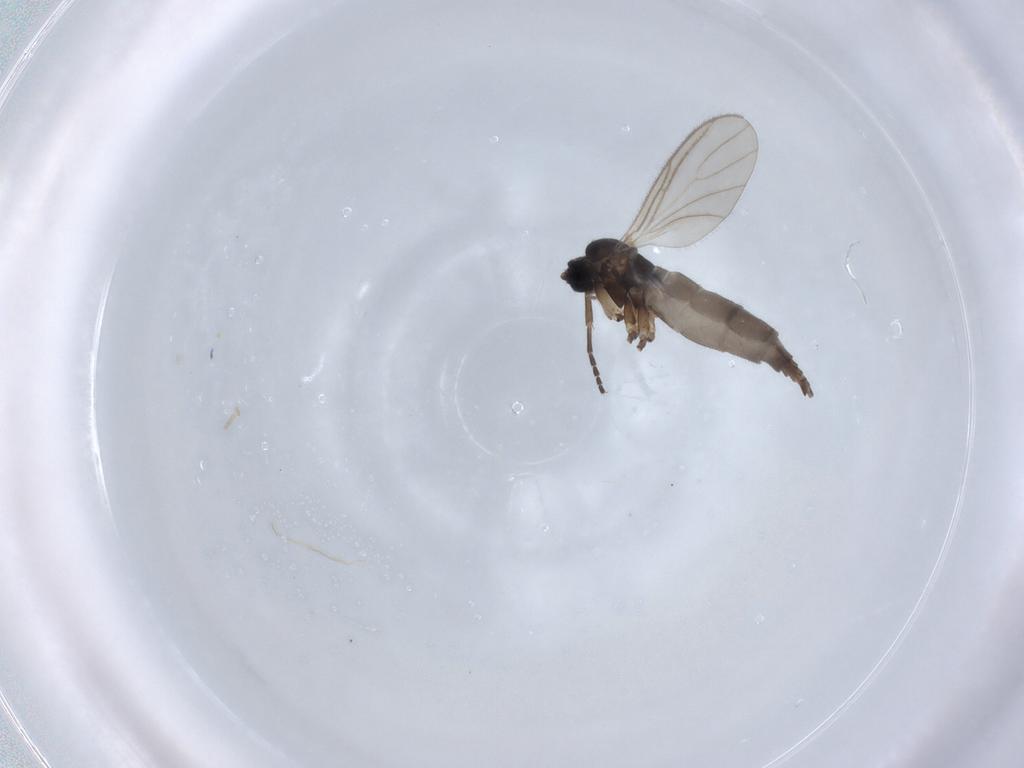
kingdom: Animalia
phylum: Arthropoda
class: Insecta
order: Diptera
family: Sciaridae
